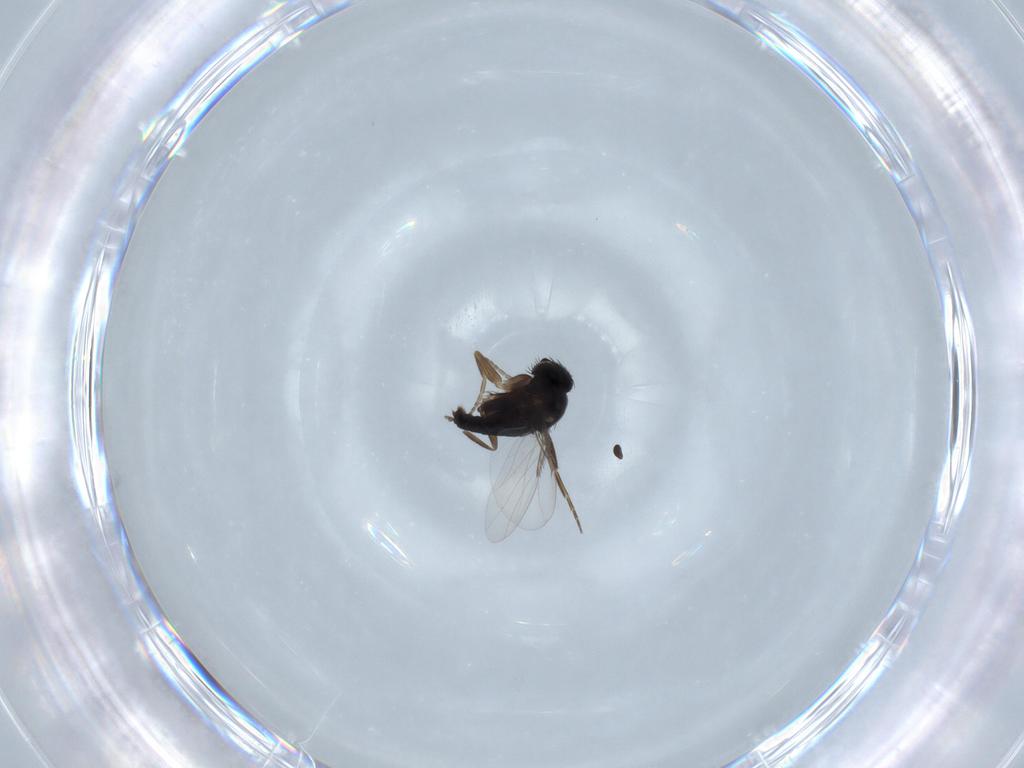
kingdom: Animalia
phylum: Arthropoda
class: Insecta
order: Diptera
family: Phoridae
